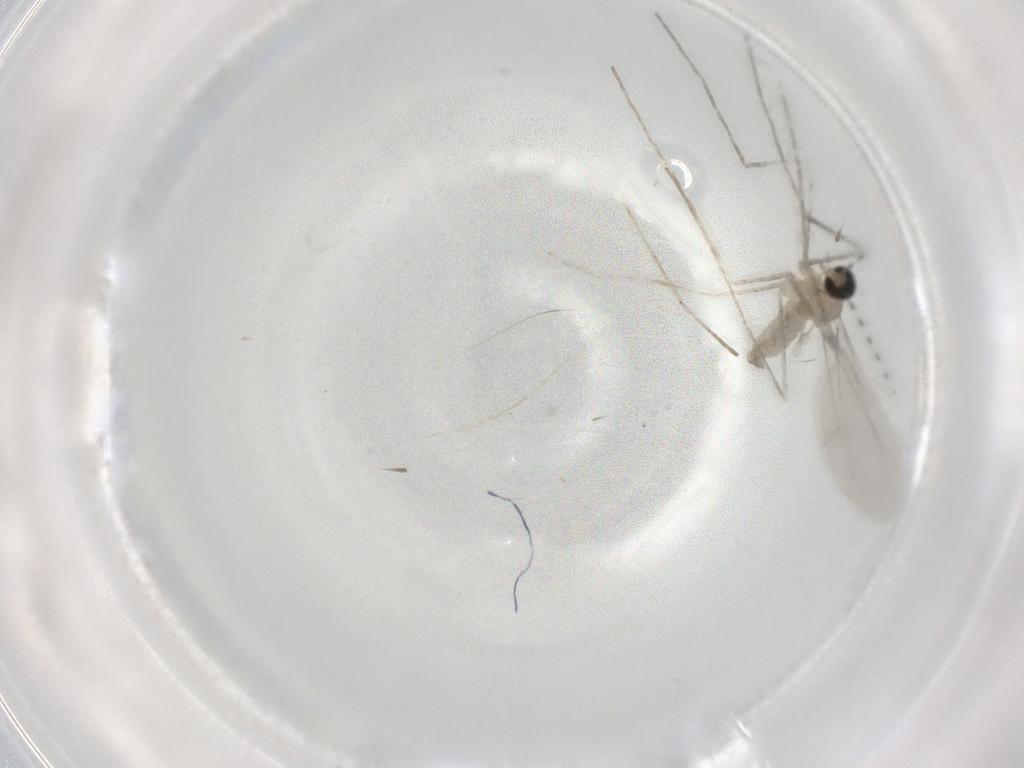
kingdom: Animalia
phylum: Arthropoda
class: Insecta
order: Diptera
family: Cecidomyiidae
